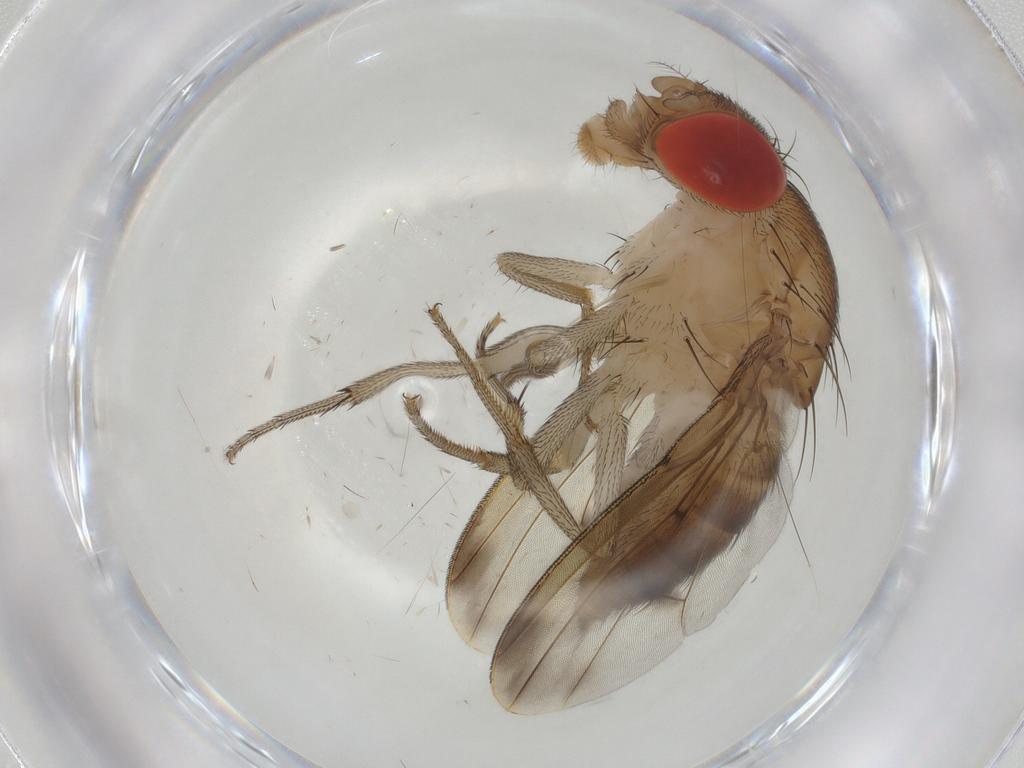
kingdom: Animalia
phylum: Arthropoda
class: Insecta
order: Diptera
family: Drosophilidae
